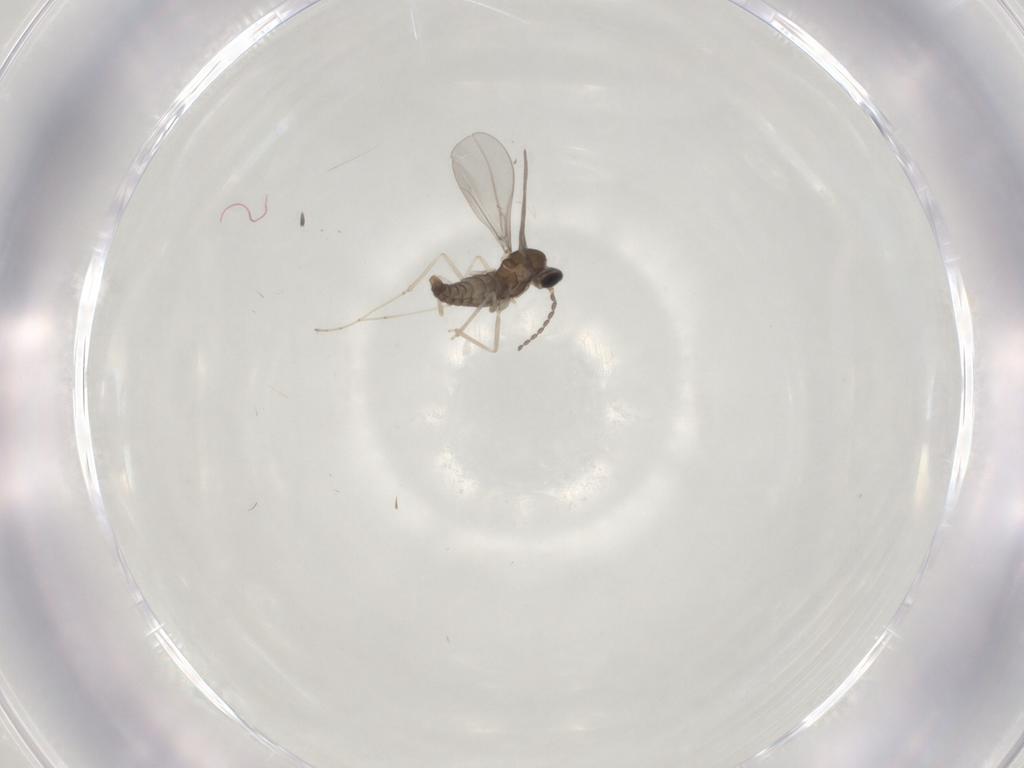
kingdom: Animalia
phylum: Arthropoda
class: Insecta
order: Diptera
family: Cecidomyiidae
